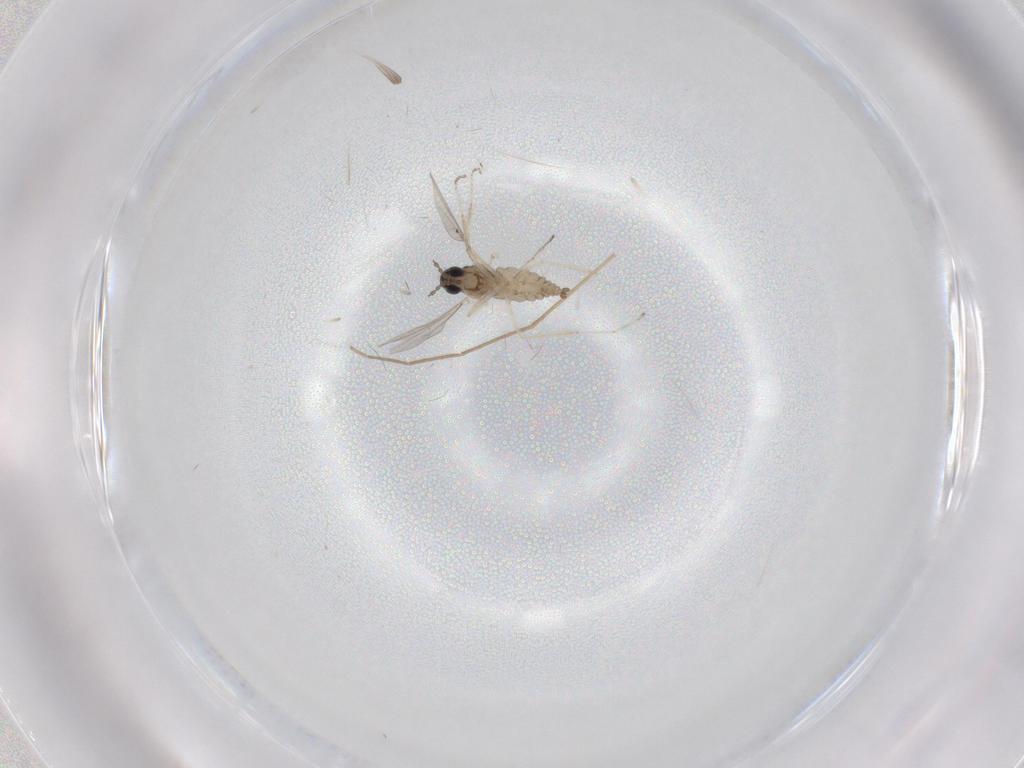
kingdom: Animalia
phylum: Arthropoda
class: Insecta
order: Diptera
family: Cecidomyiidae
